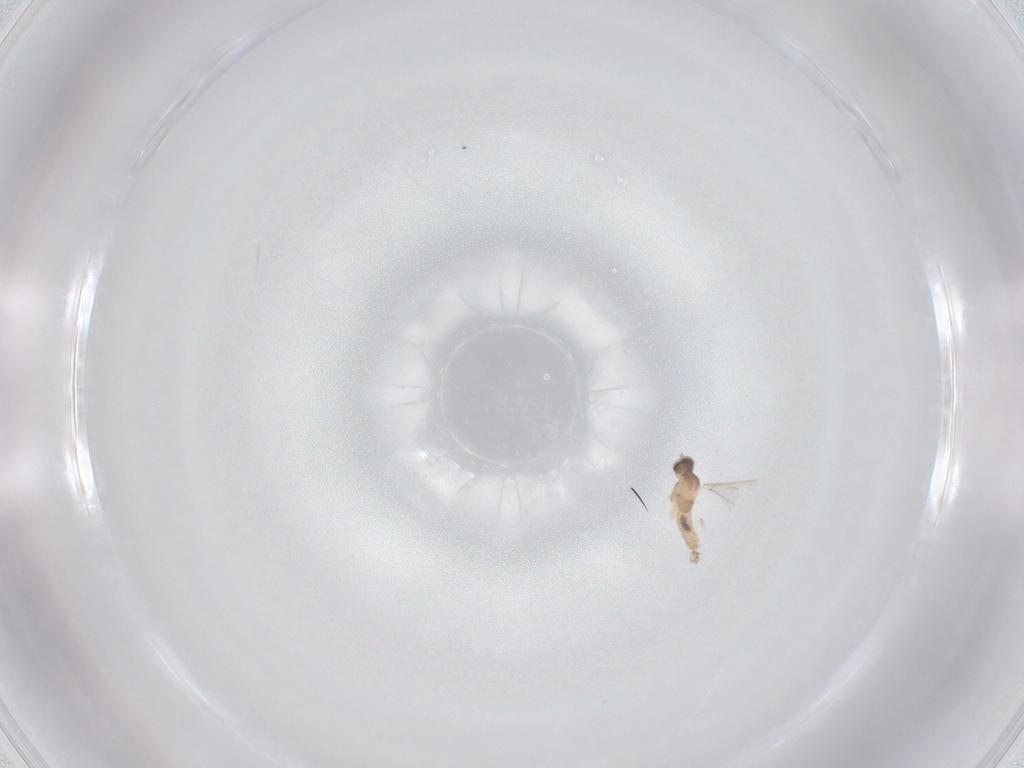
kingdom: Animalia
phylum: Arthropoda
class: Insecta
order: Diptera
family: Cecidomyiidae
